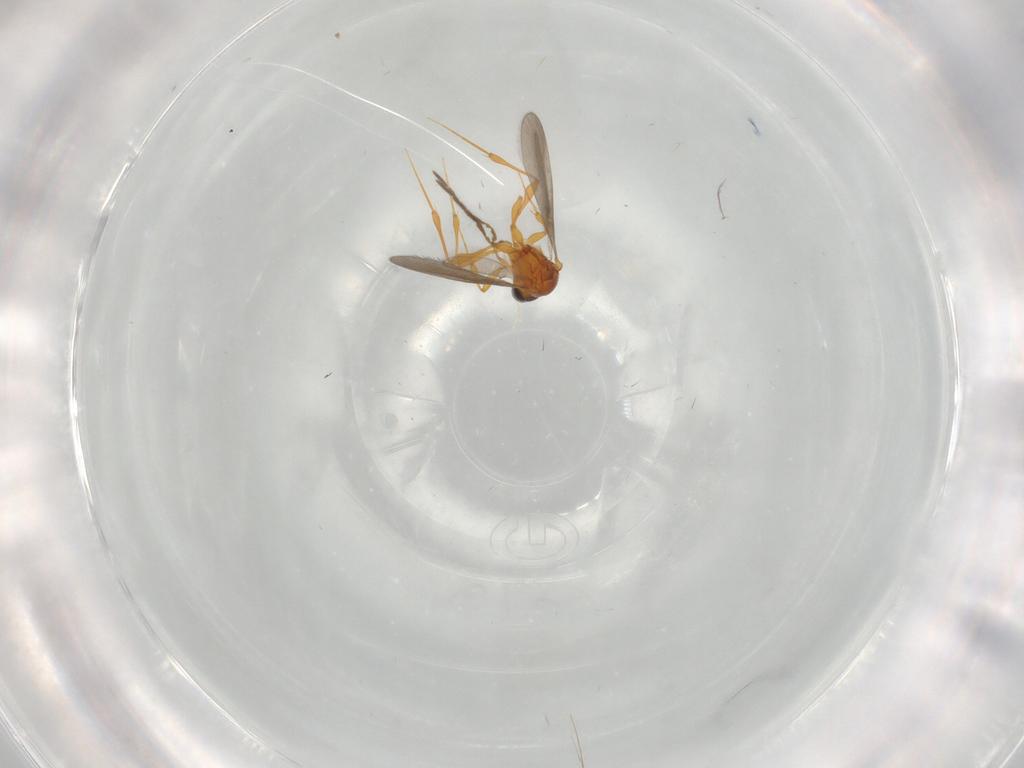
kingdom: Animalia
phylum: Arthropoda
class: Insecta
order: Hymenoptera
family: Platygastridae
